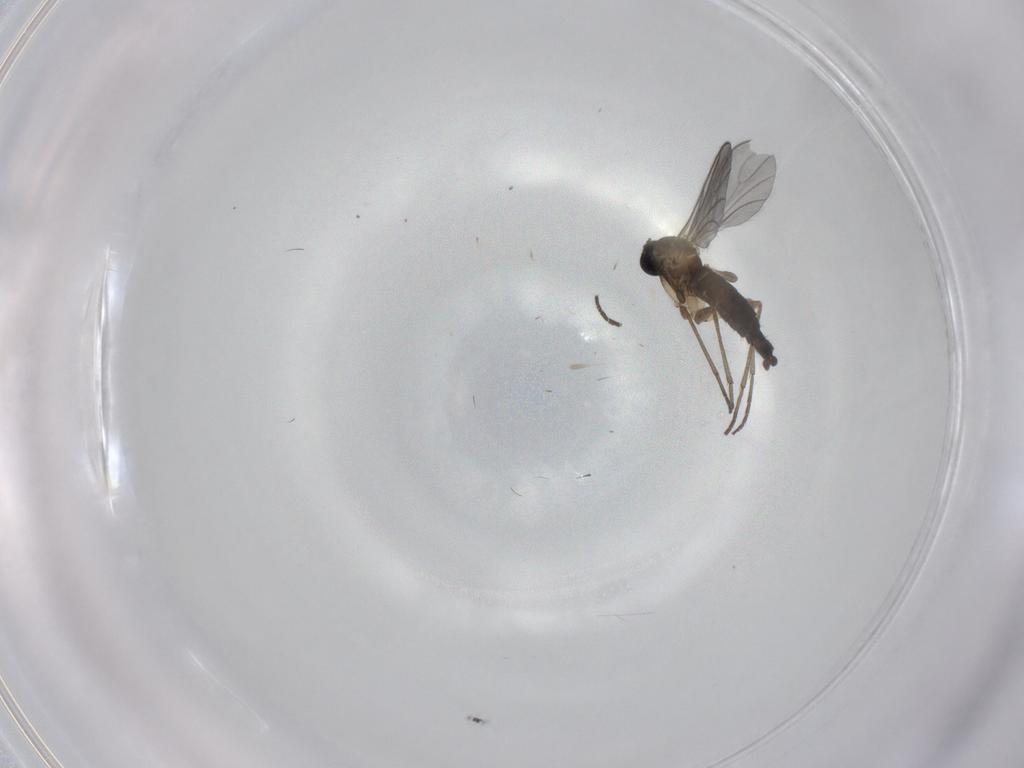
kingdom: Animalia
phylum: Arthropoda
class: Insecta
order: Diptera
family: Sciaridae
